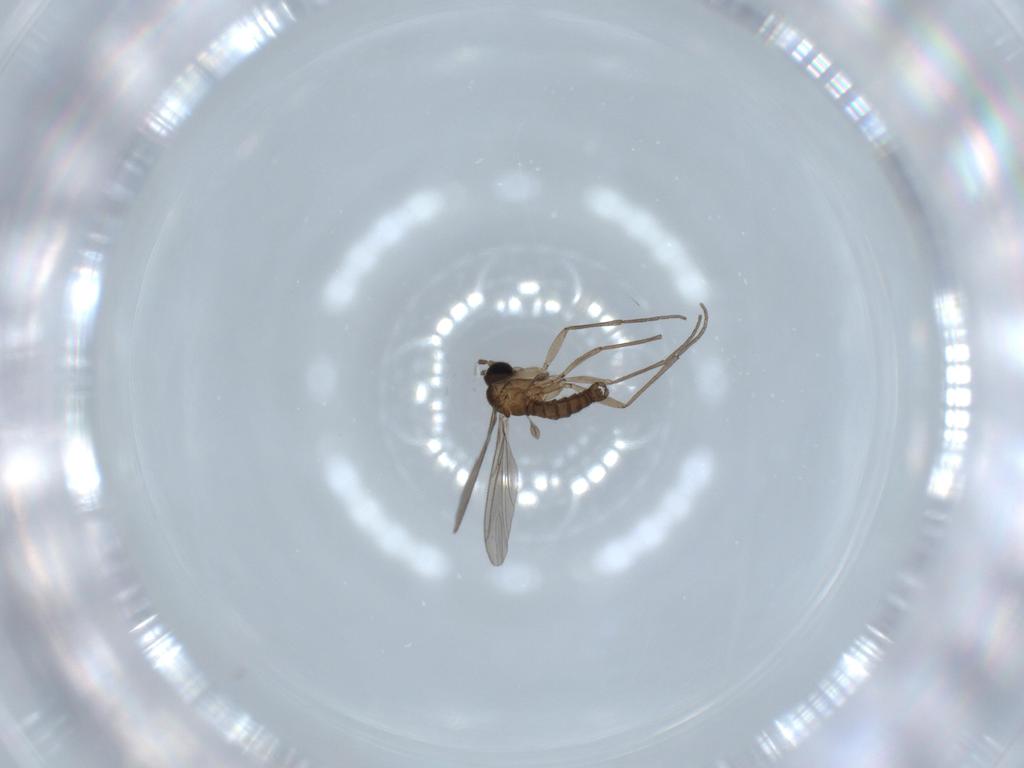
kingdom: Animalia
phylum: Arthropoda
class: Insecta
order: Diptera
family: Sciaridae
